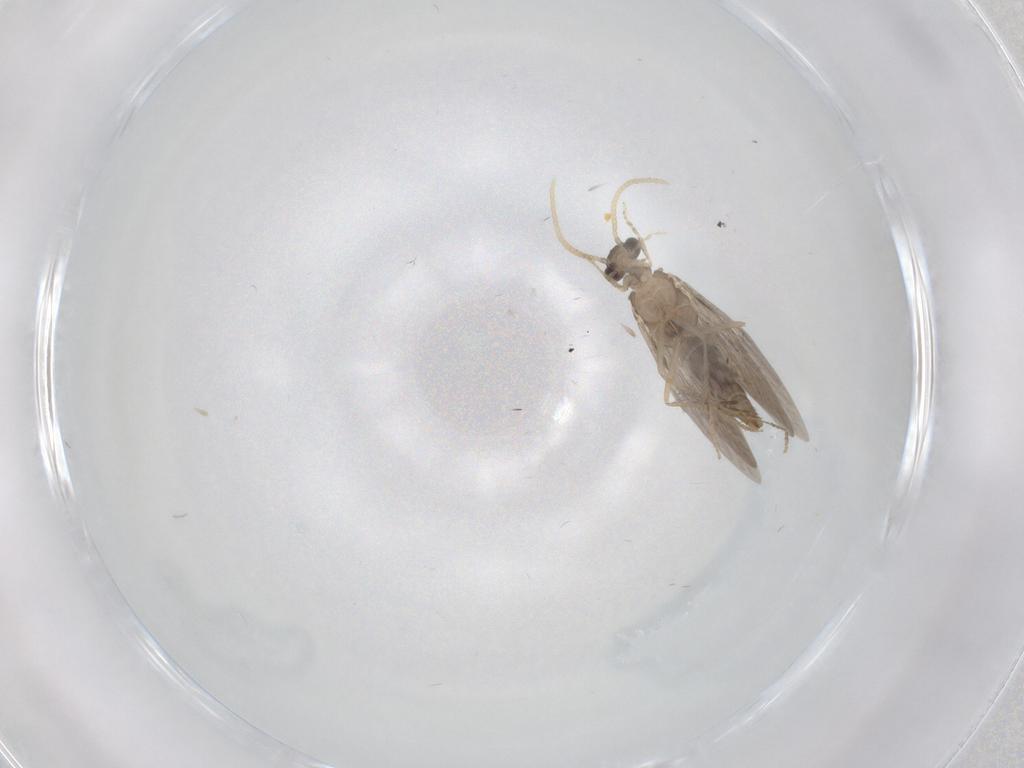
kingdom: Animalia
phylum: Arthropoda
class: Insecta
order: Trichoptera
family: Hydroptilidae
